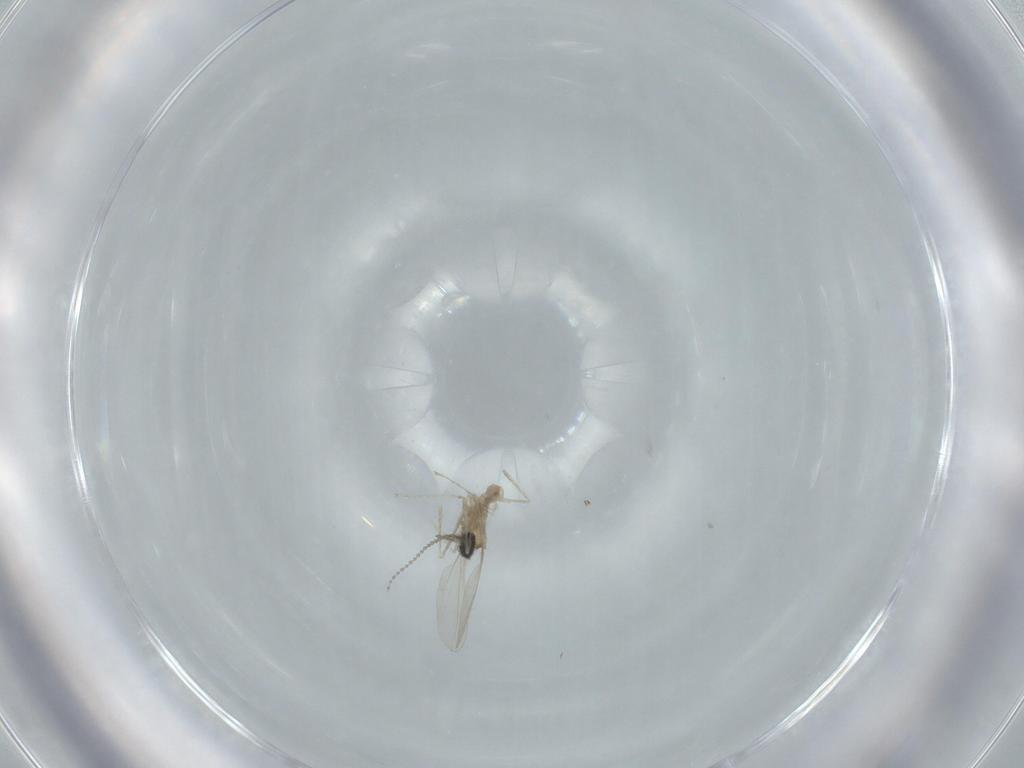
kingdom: Animalia
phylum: Arthropoda
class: Insecta
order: Diptera
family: Cecidomyiidae
